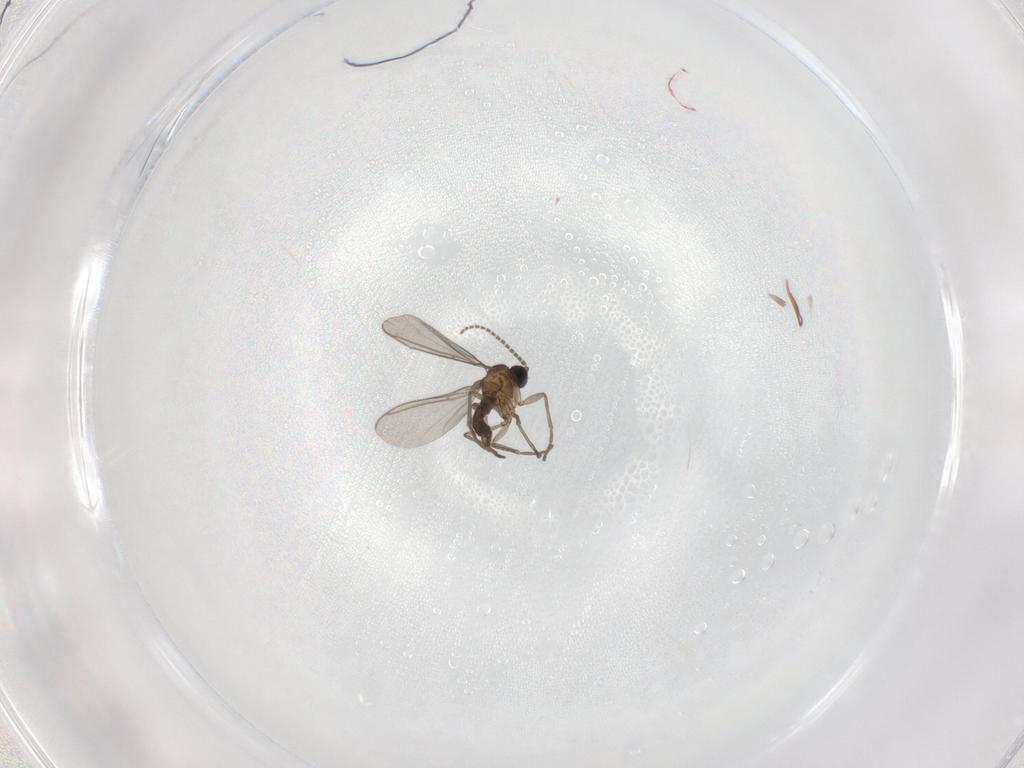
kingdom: Animalia
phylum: Arthropoda
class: Insecta
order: Diptera
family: Cecidomyiidae
